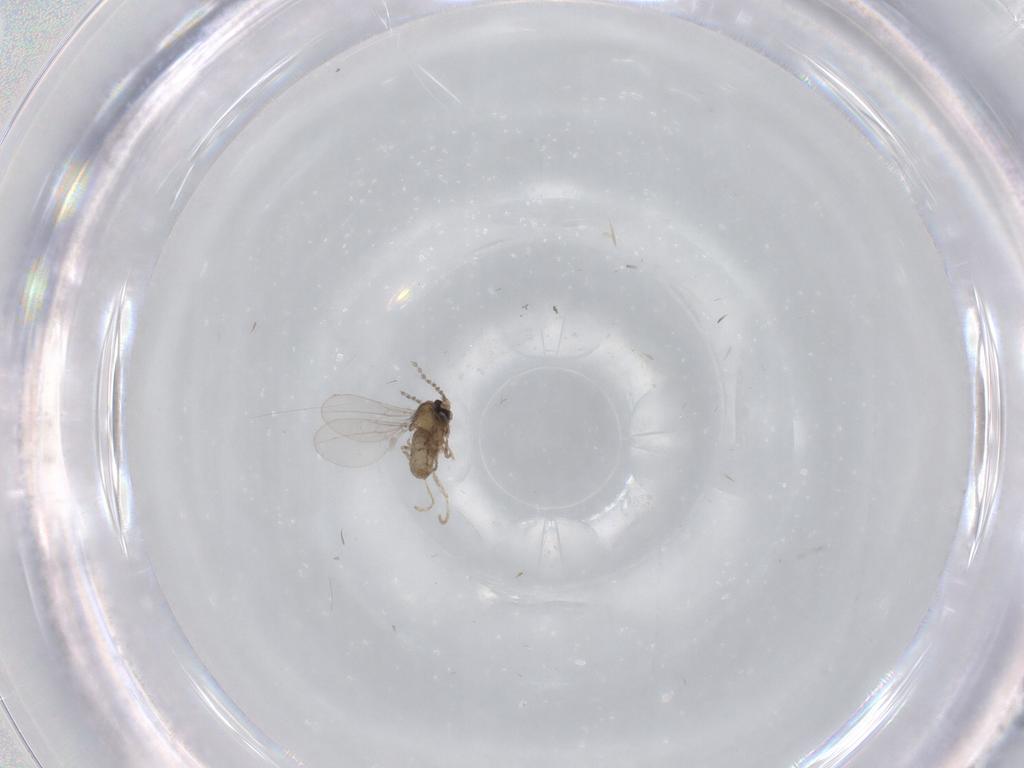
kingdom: Animalia
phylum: Arthropoda
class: Insecta
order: Diptera
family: Cecidomyiidae
